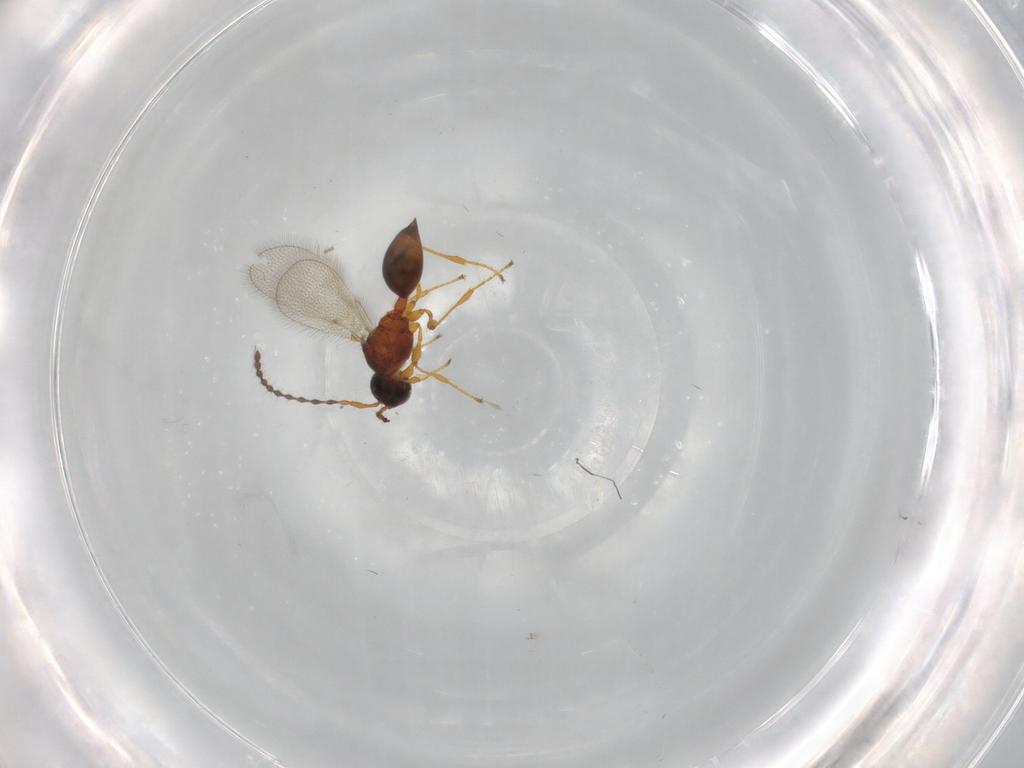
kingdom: Animalia
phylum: Arthropoda
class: Insecta
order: Hymenoptera
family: Diapriidae
